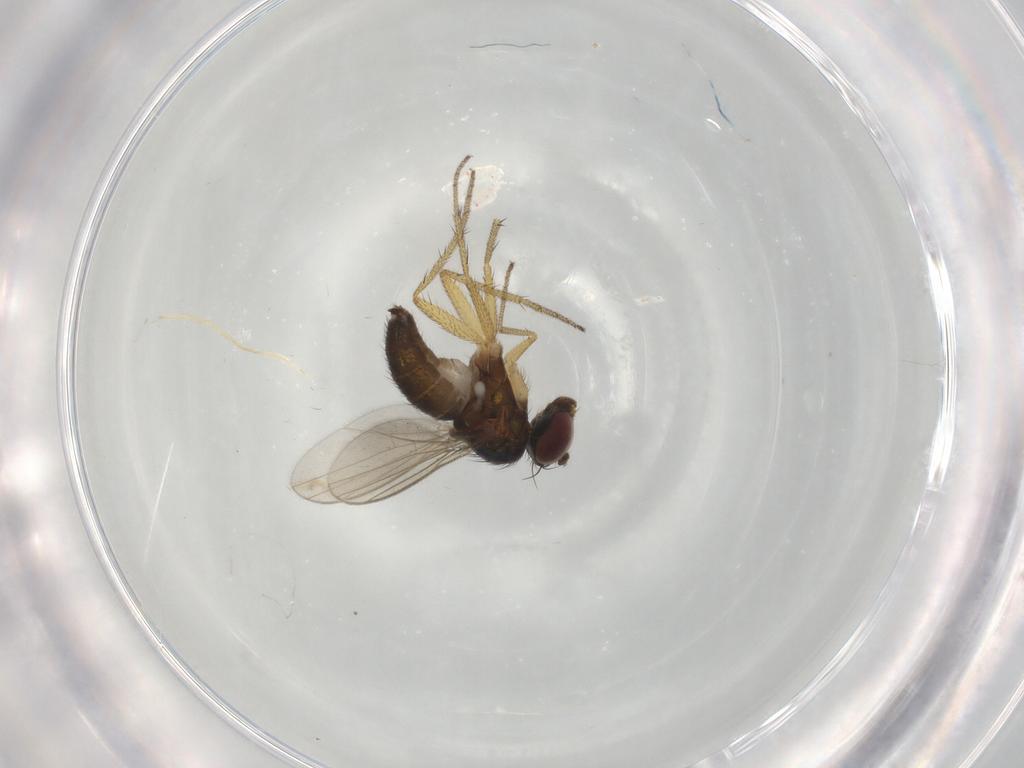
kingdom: Animalia
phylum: Arthropoda
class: Insecta
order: Diptera
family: Dolichopodidae
